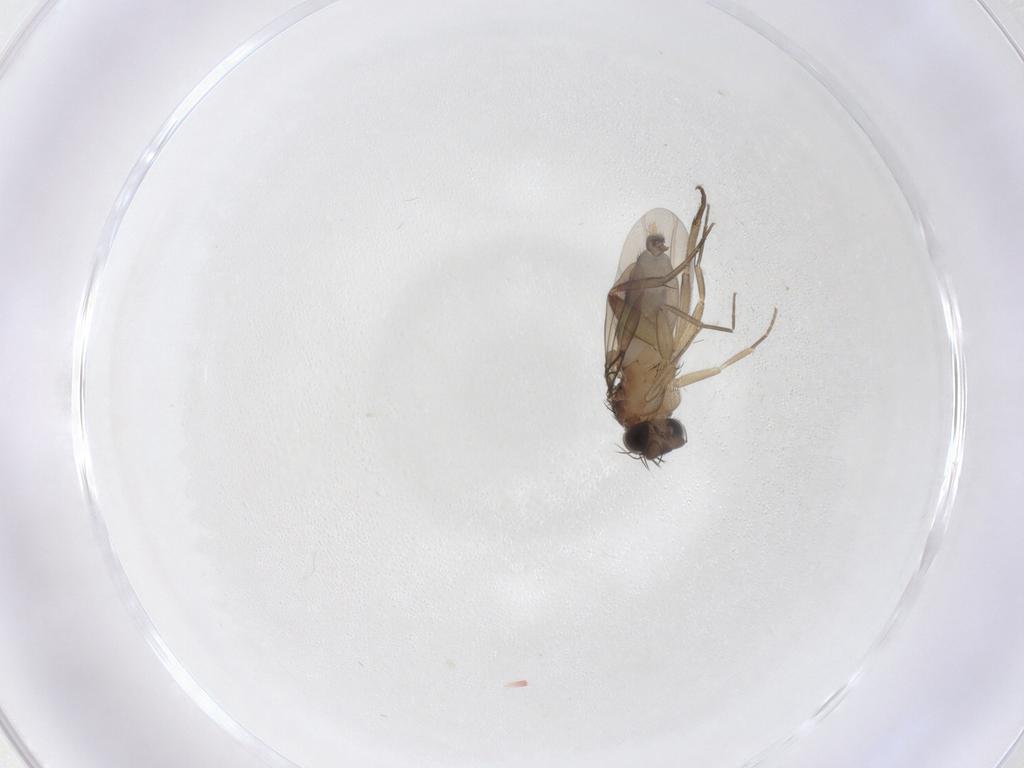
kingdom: Animalia
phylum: Arthropoda
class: Insecta
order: Diptera
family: Phoridae
